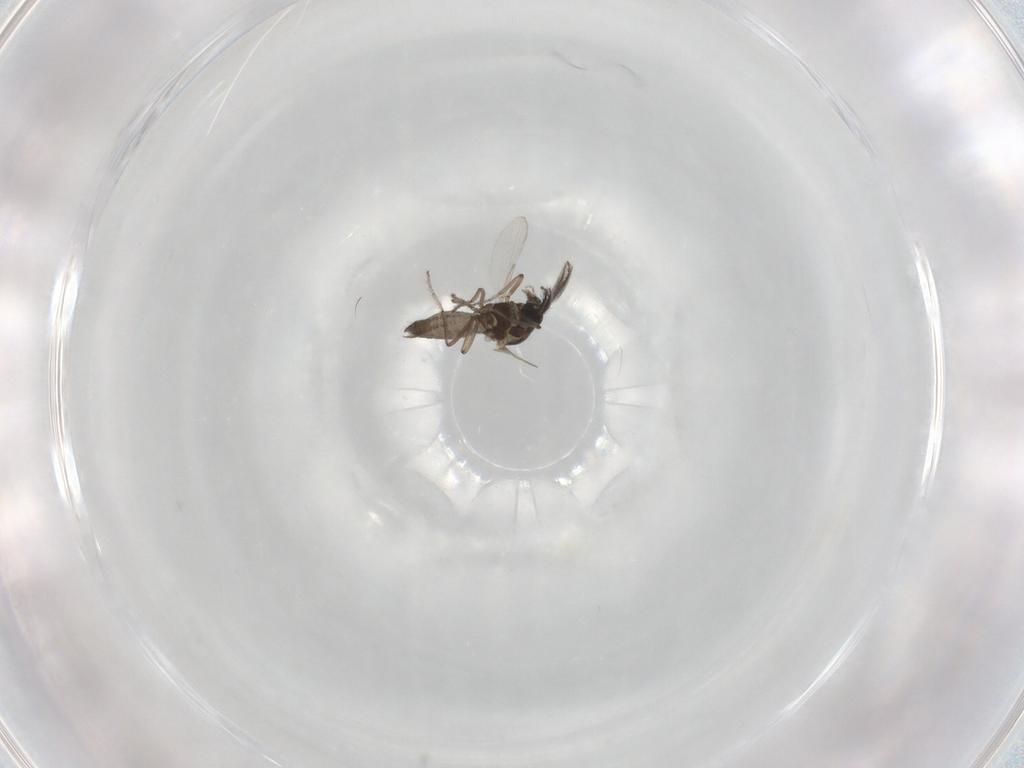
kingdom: Animalia
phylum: Arthropoda
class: Insecta
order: Diptera
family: Ceratopogonidae
